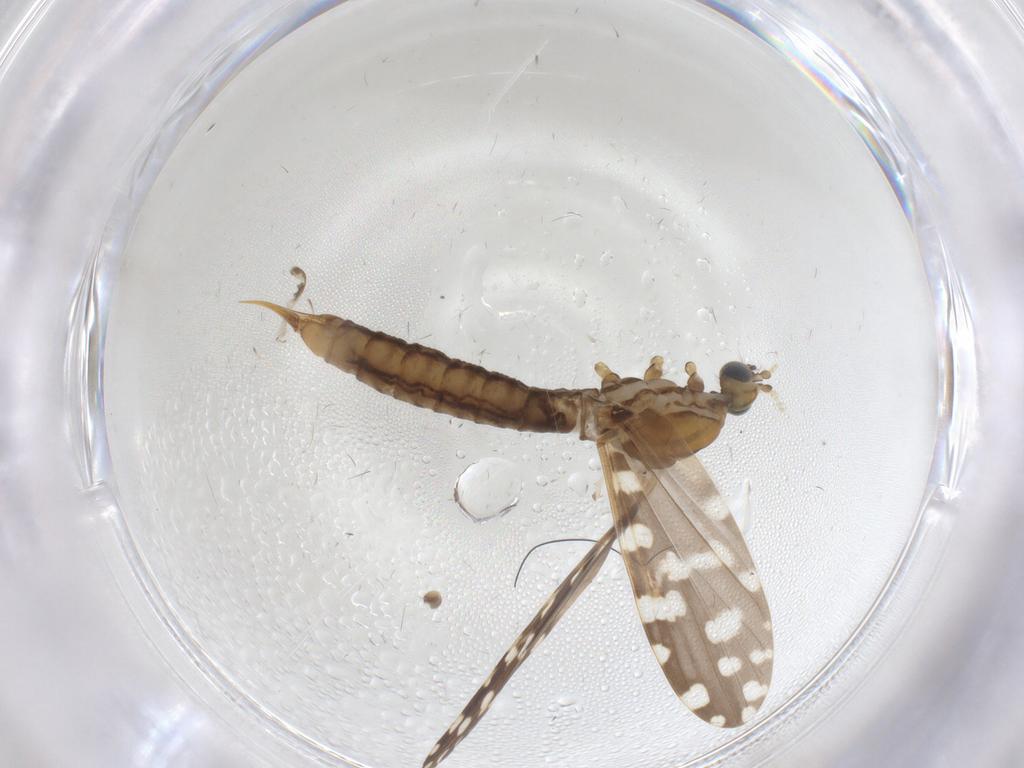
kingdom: Animalia
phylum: Arthropoda
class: Insecta
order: Diptera
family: Limoniidae
